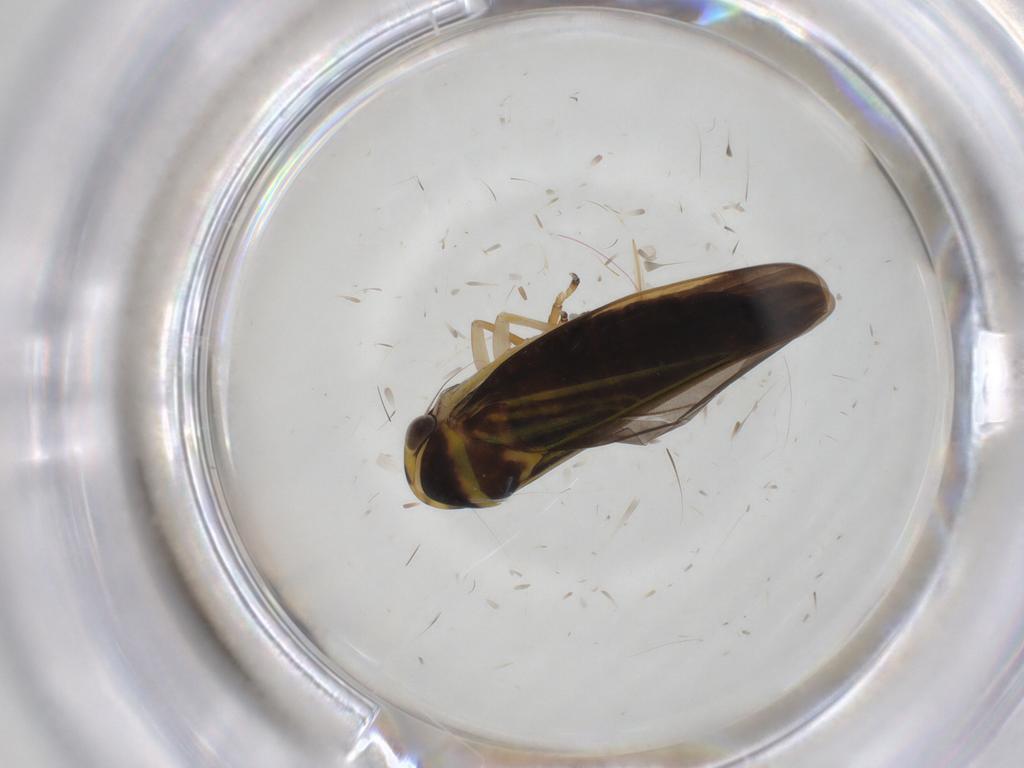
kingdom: Animalia
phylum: Arthropoda
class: Insecta
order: Hemiptera
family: Cicadellidae
